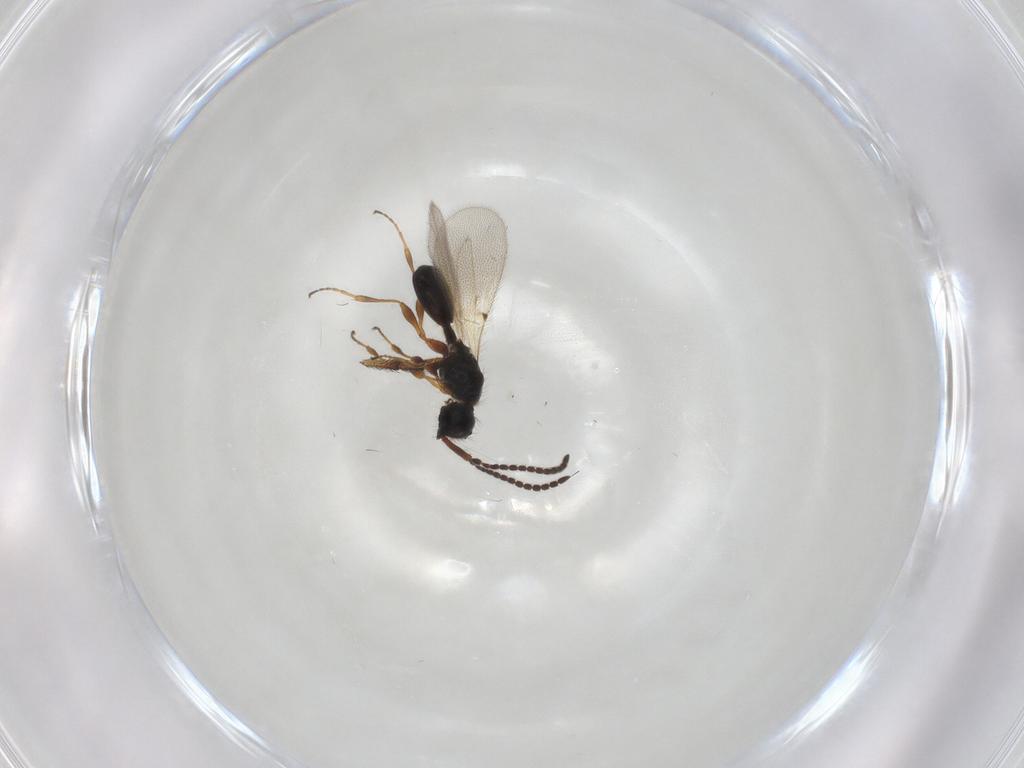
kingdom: Animalia
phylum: Arthropoda
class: Insecta
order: Hymenoptera
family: Diapriidae
